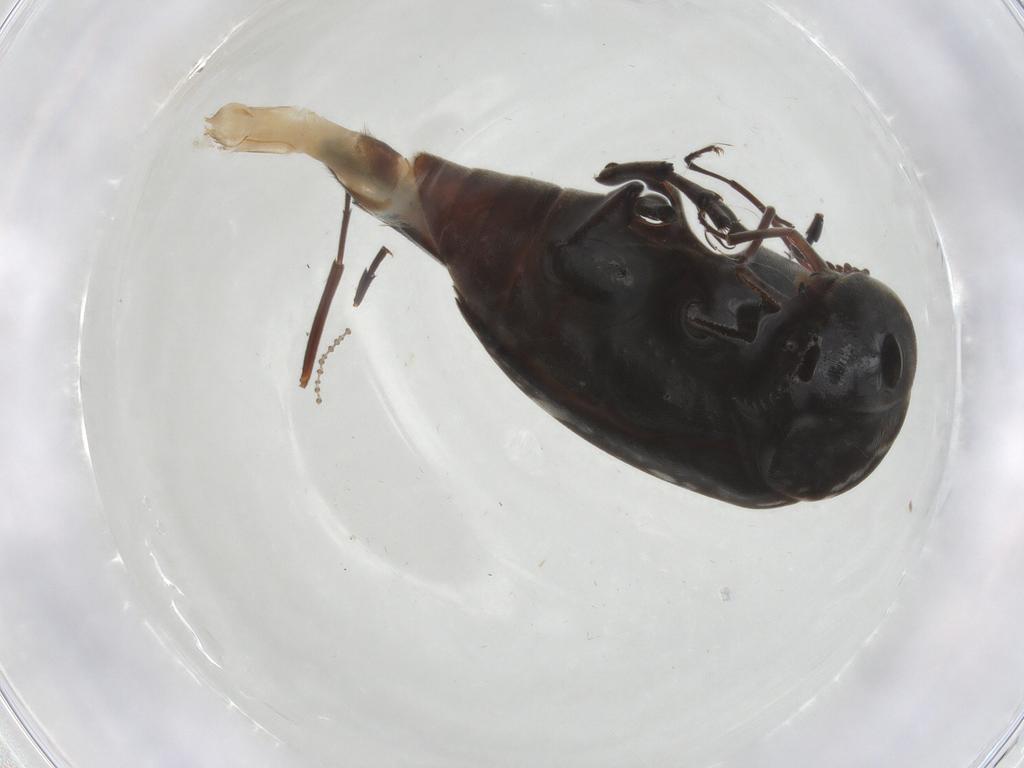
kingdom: Animalia
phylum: Arthropoda
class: Insecta
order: Coleoptera
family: Mordellidae
